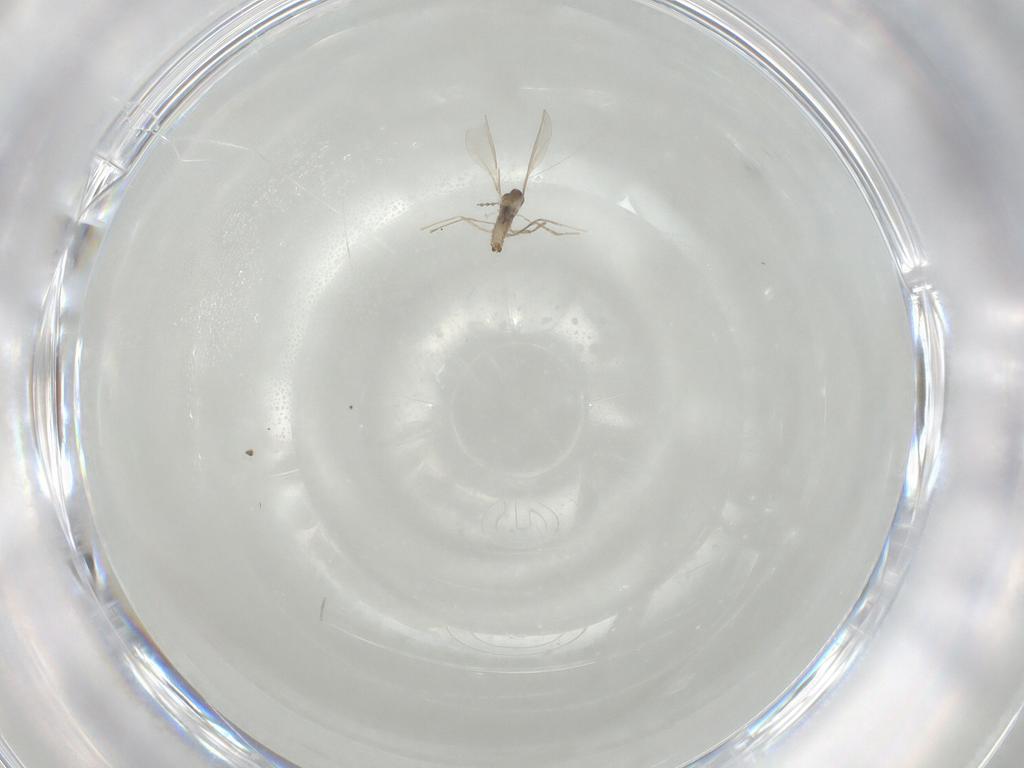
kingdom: Animalia
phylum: Arthropoda
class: Insecta
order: Diptera
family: Cecidomyiidae
